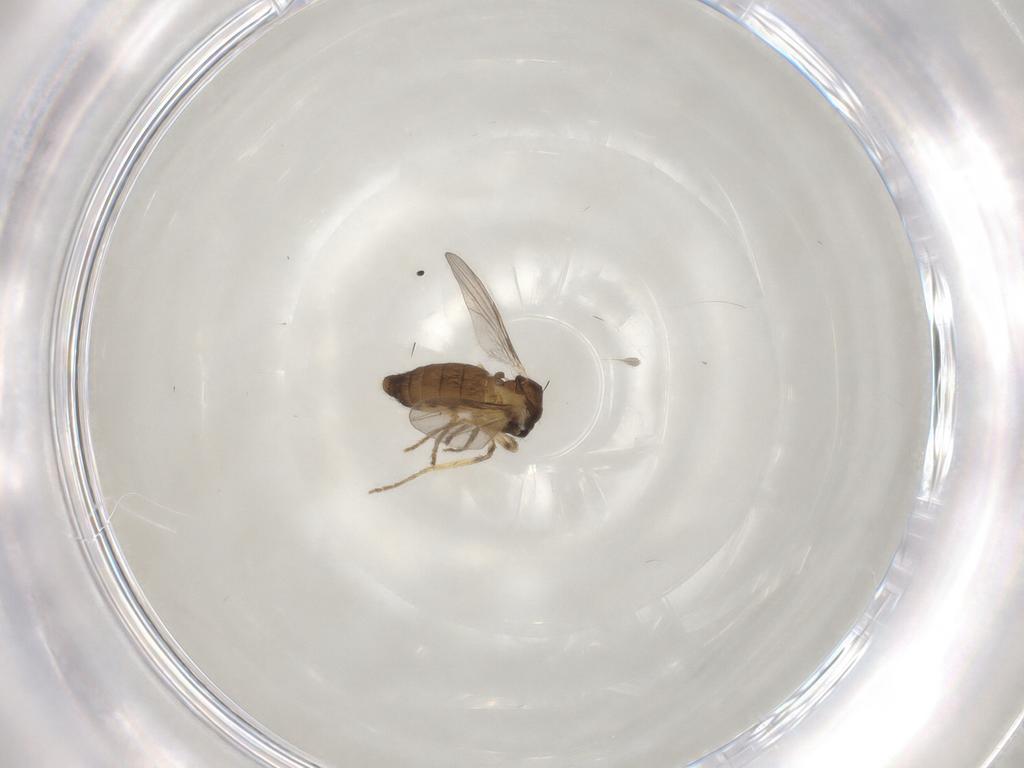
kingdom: Animalia
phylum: Arthropoda
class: Insecta
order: Diptera
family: Ceratopogonidae
